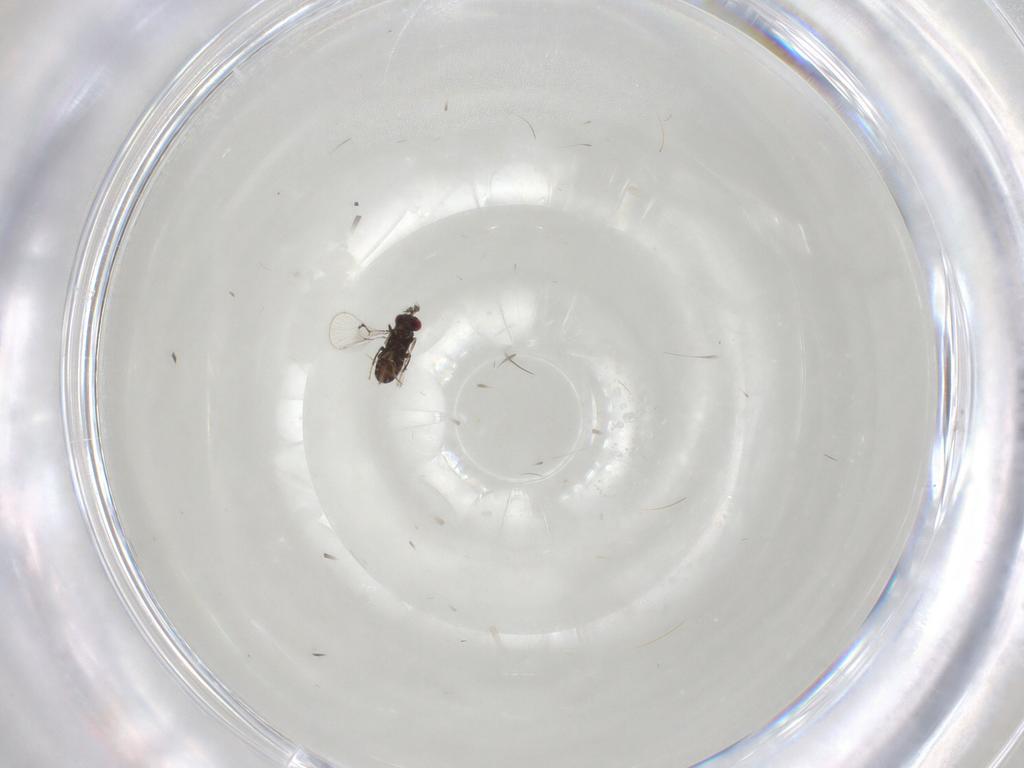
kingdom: Animalia
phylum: Arthropoda
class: Insecta
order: Hymenoptera
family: Trichogrammatidae
